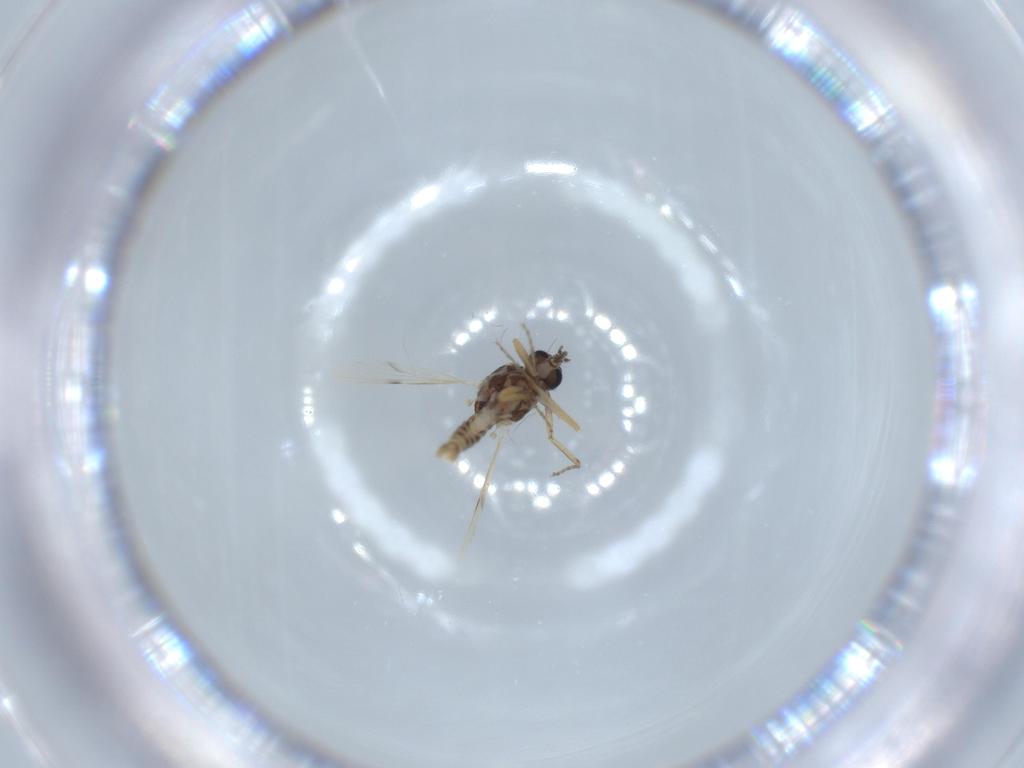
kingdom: Animalia
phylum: Arthropoda
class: Insecta
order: Diptera
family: Ceratopogonidae
